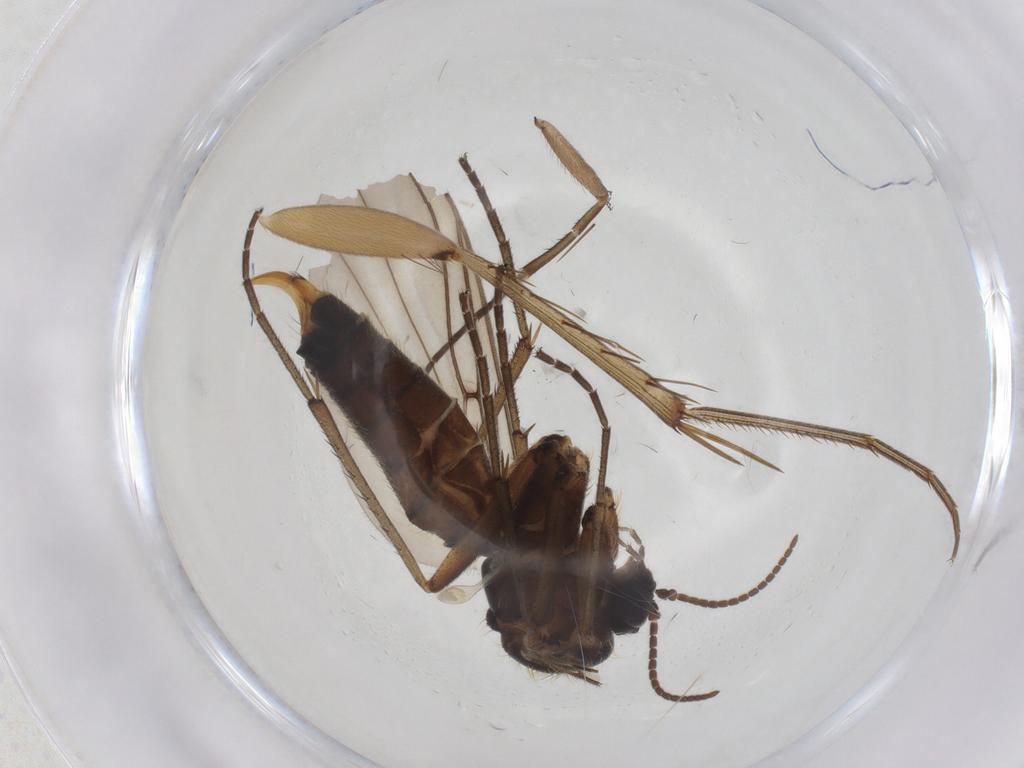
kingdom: Animalia
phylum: Arthropoda
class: Insecta
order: Diptera
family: Mycetophilidae
